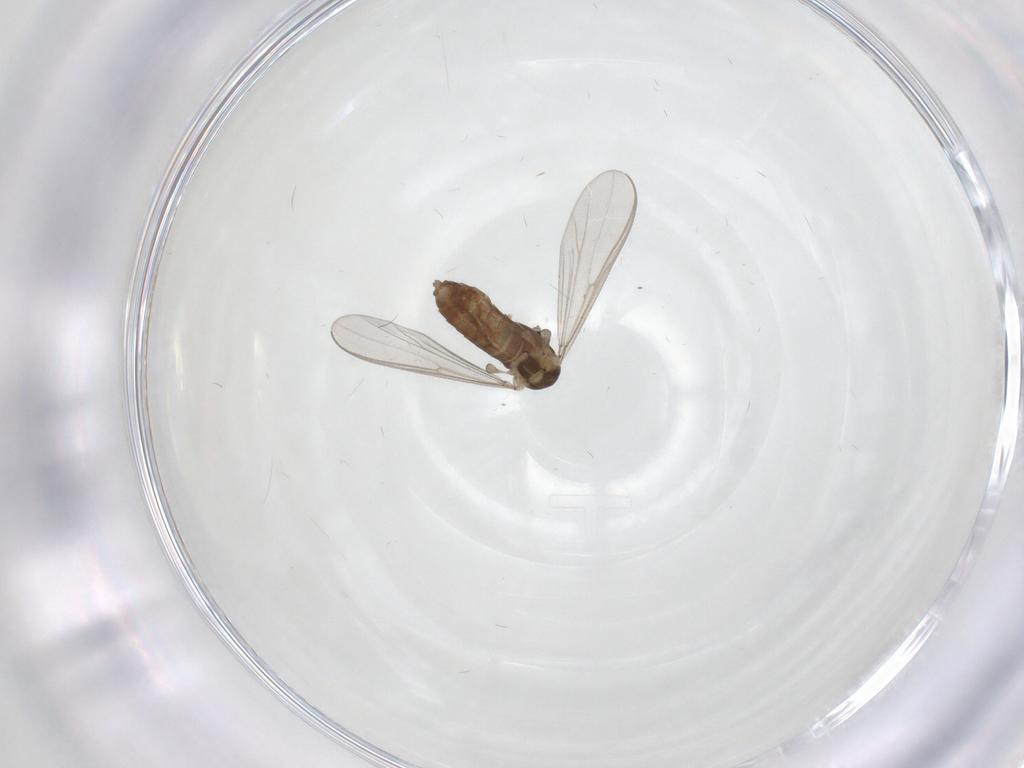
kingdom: Animalia
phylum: Arthropoda
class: Insecta
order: Diptera
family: Chironomidae
